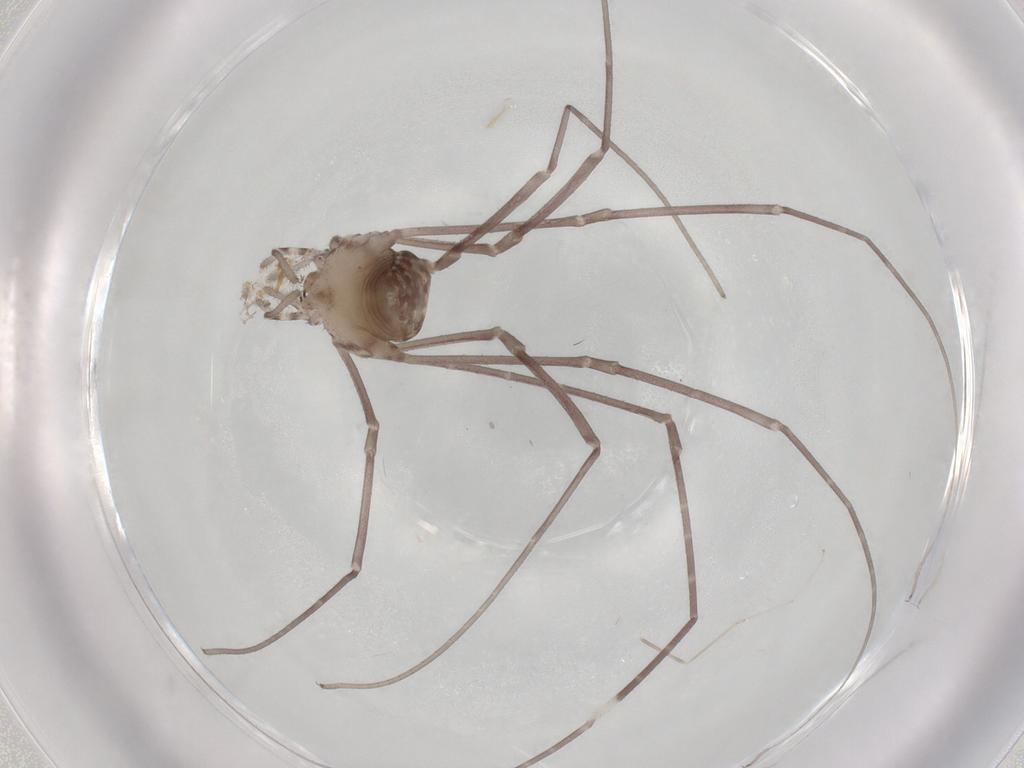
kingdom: Animalia
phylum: Arthropoda
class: Arachnida
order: Opiliones
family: Sclerosomatidae
